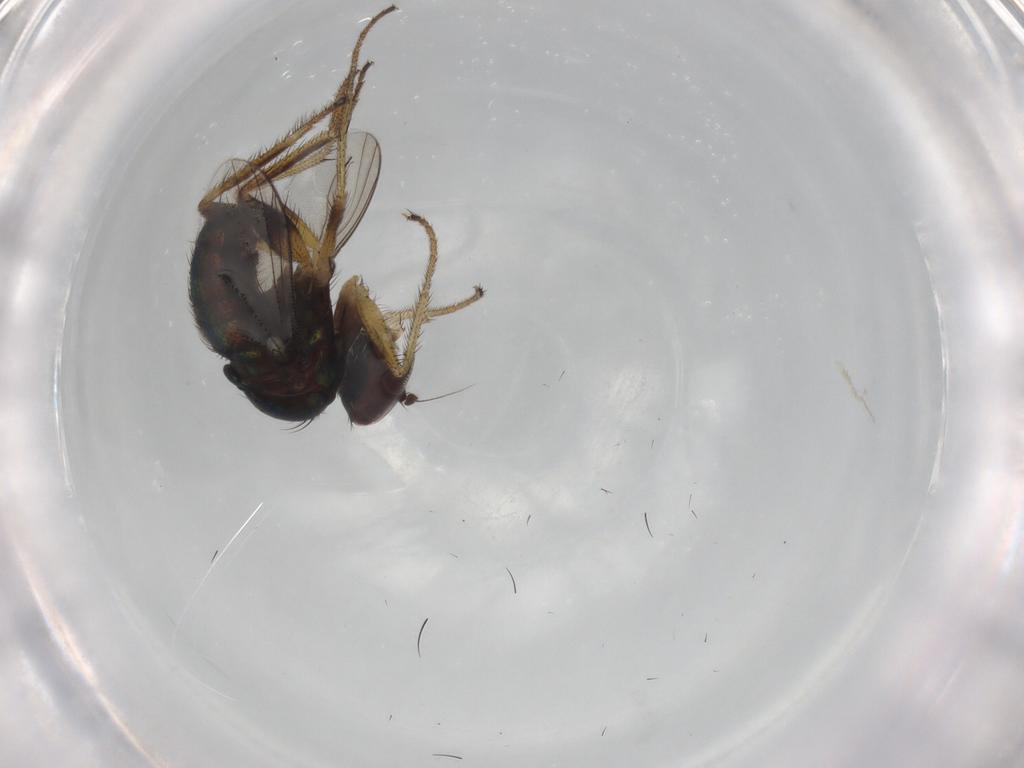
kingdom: Animalia
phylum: Arthropoda
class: Insecta
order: Diptera
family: Dolichopodidae
